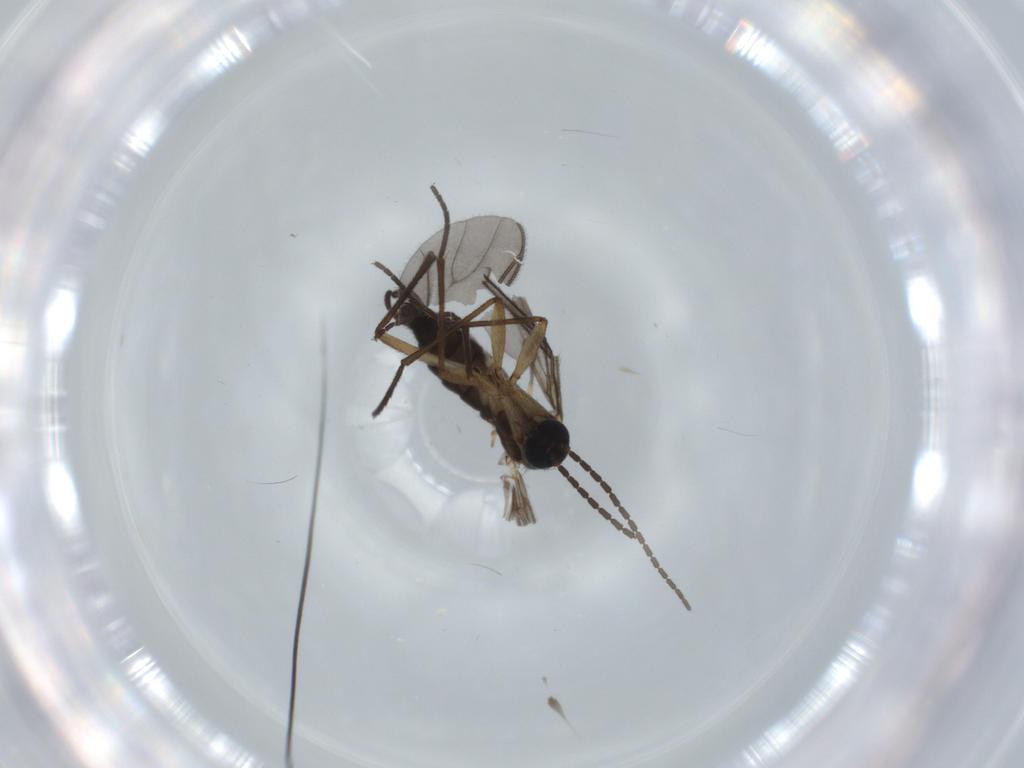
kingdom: Animalia
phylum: Arthropoda
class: Insecta
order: Diptera
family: Sciaridae
